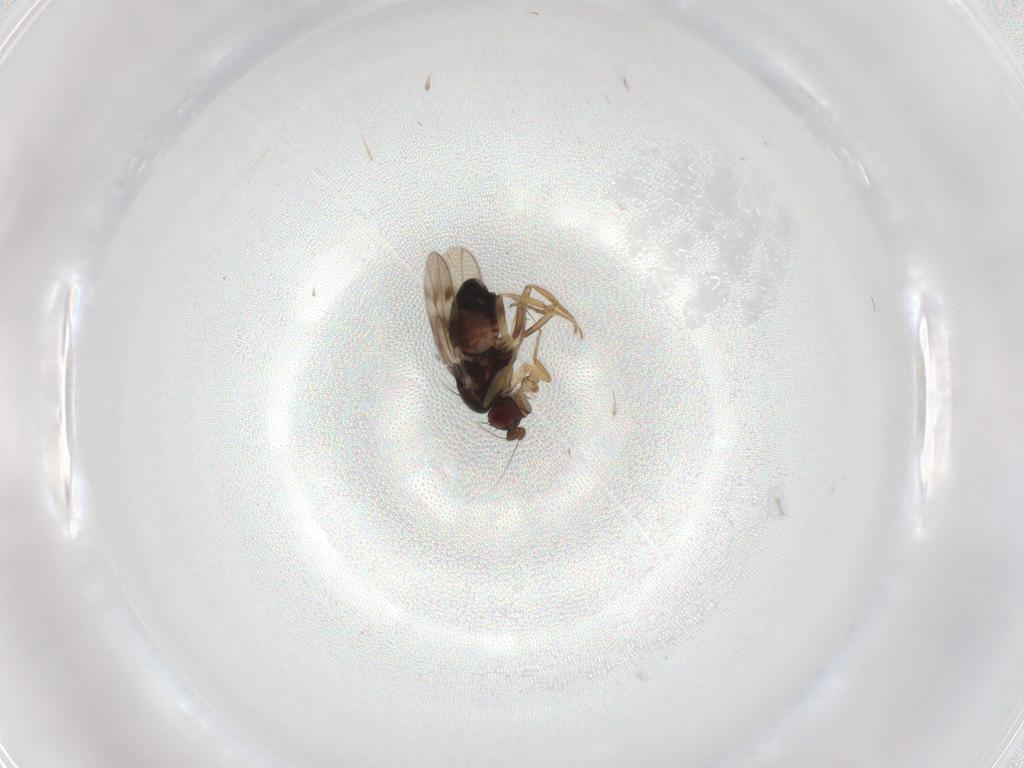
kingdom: Animalia
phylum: Arthropoda
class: Insecta
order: Diptera
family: Sphaeroceridae
